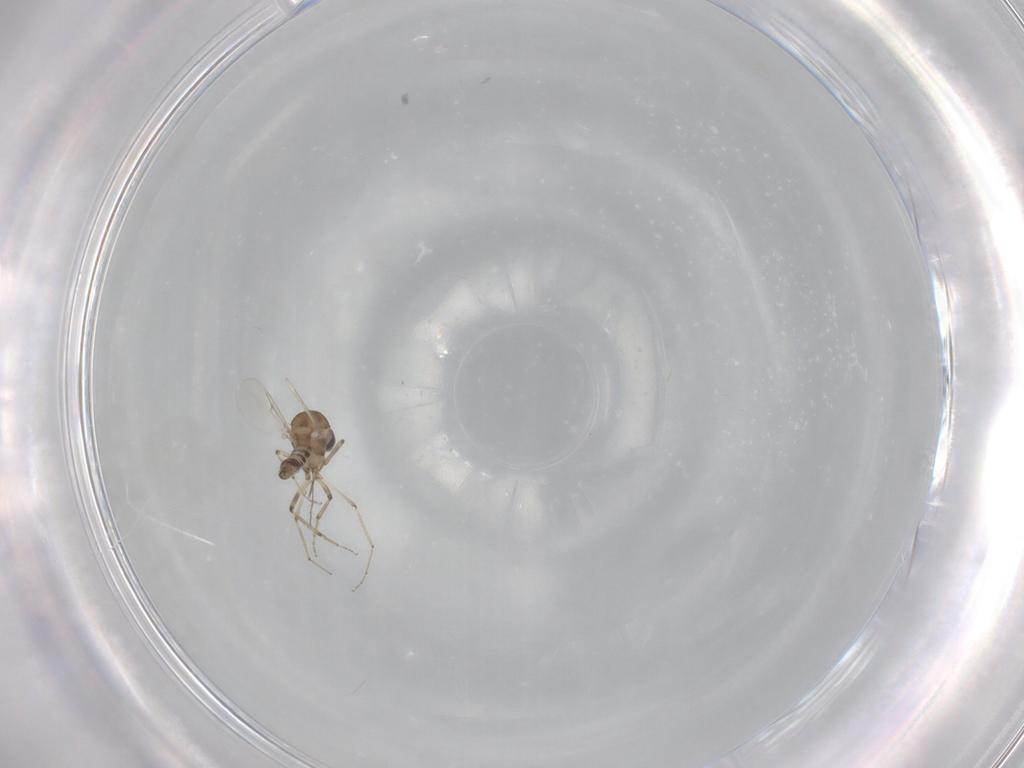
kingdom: Animalia
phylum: Arthropoda
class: Insecta
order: Diptera
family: Ceratopogonidae
